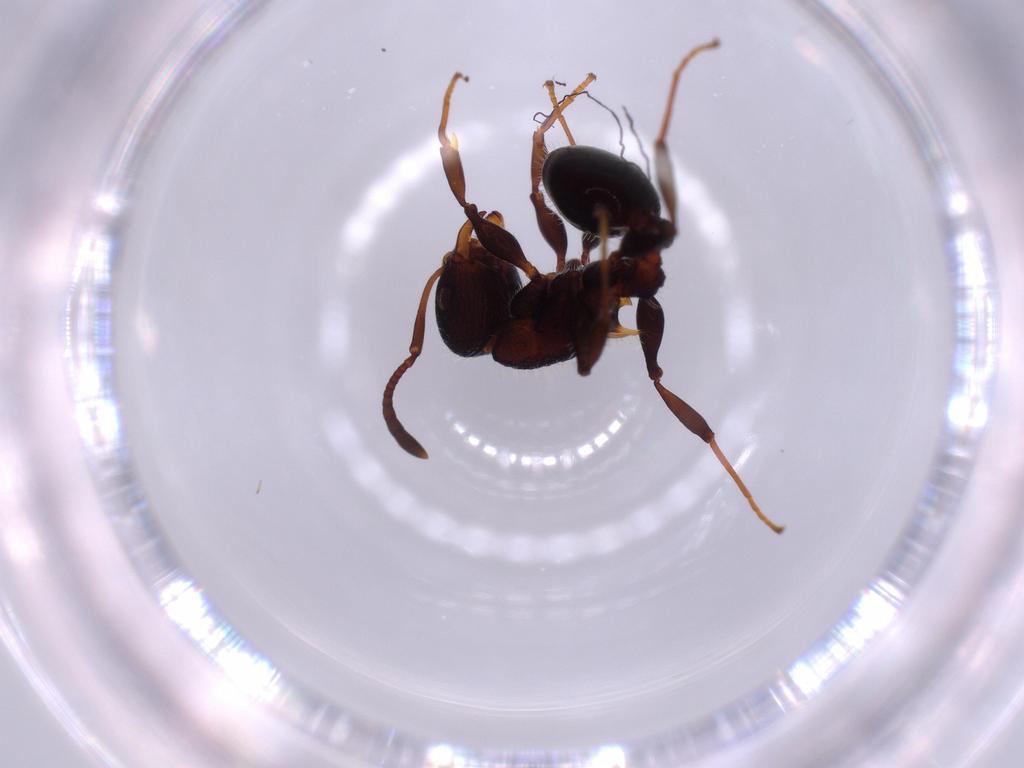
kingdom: Animalia
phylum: Arthropoda
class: Insecta
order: Hymenoptera
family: Formicidae
